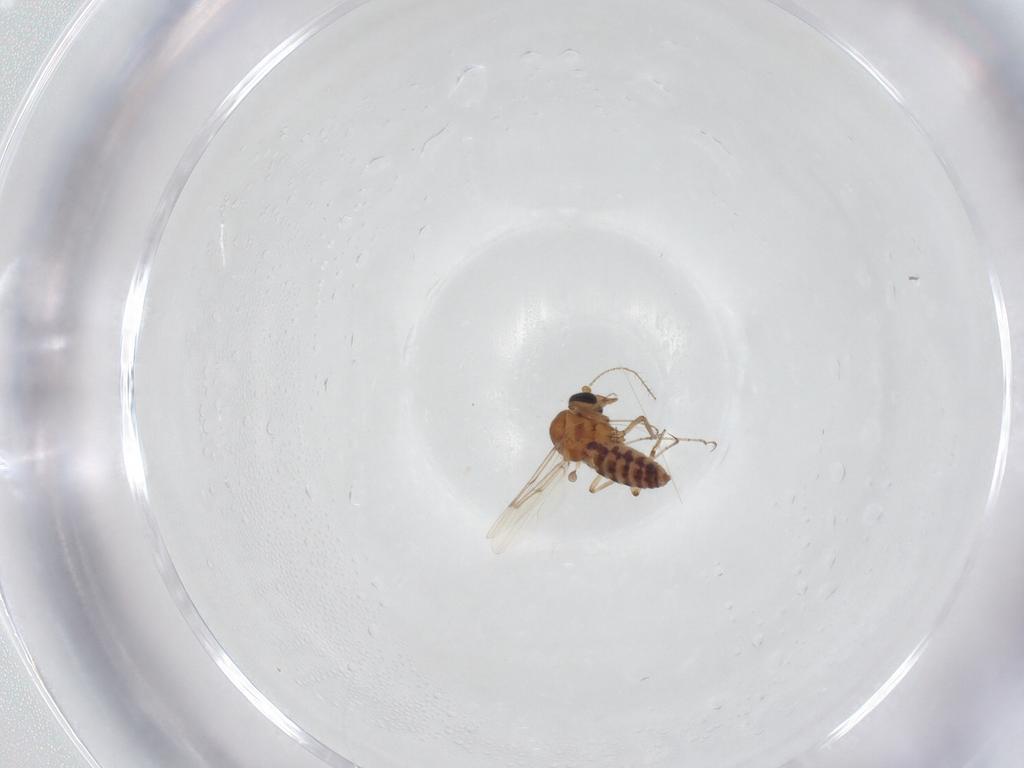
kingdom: Animalia
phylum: Arthropoda
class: Insecta
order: Diptera
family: Ceratopogonidae
